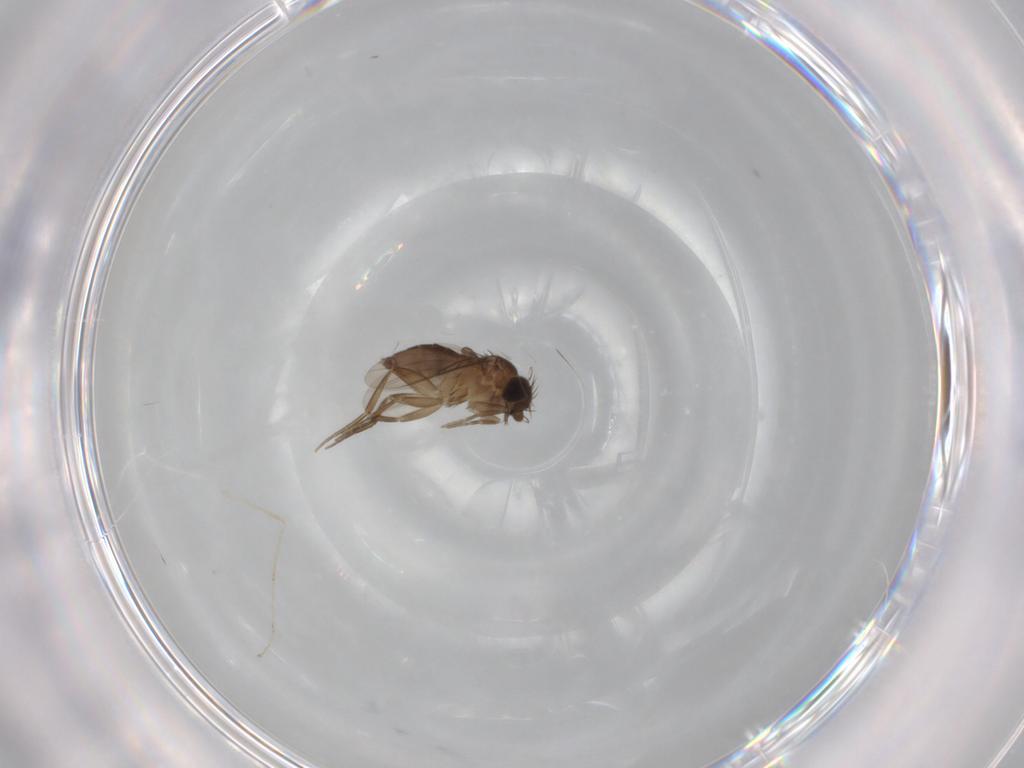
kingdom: Animalia
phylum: Arthropoda
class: Insecta
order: Diptera
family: Phoridae
